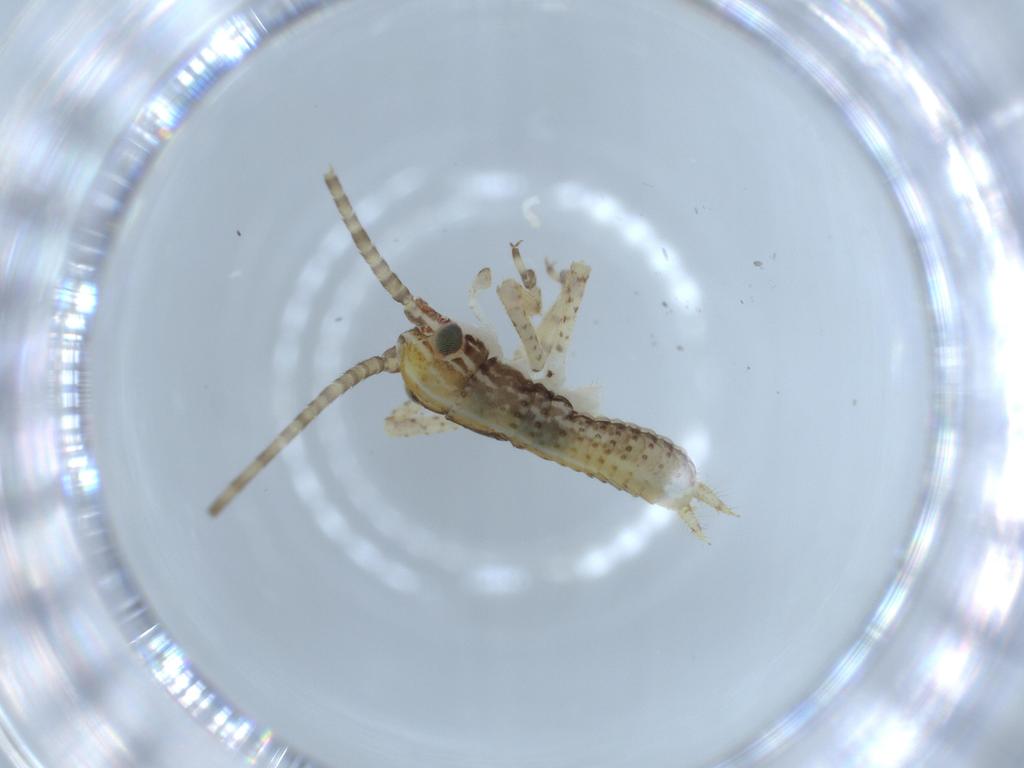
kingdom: Animalia
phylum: Arthropoda
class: Insecta
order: Orthoptera
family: Gryllidae
